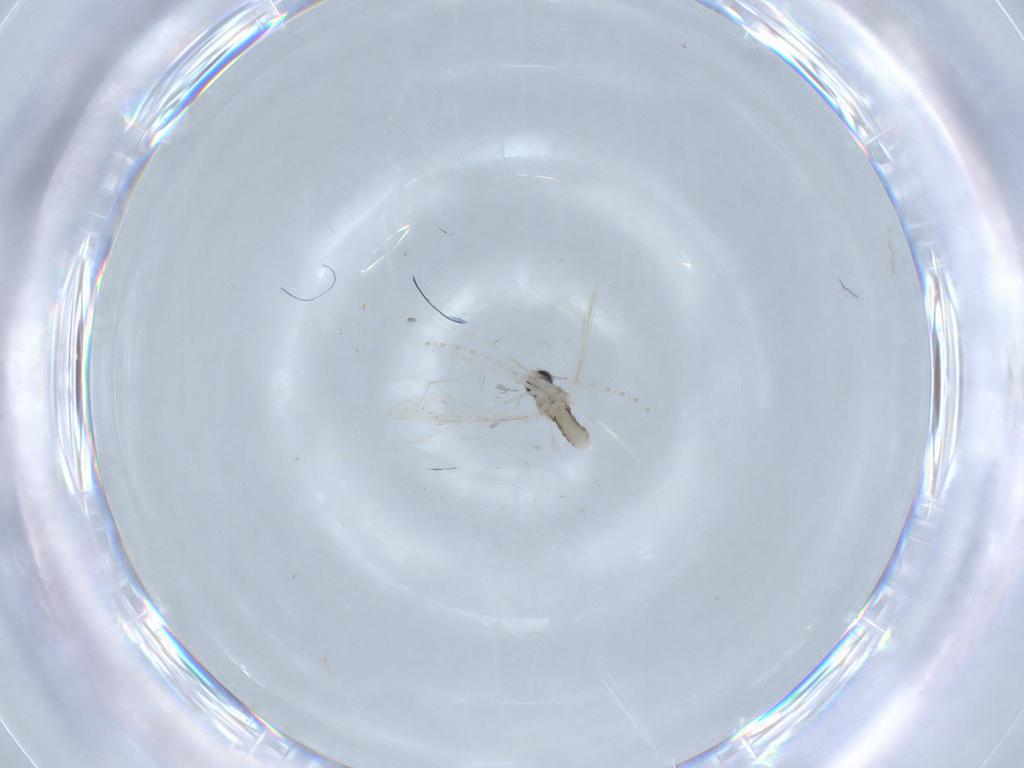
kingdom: Animalia
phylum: Arthropoda
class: Insecta
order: Diptera
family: Cecidomyiidae
